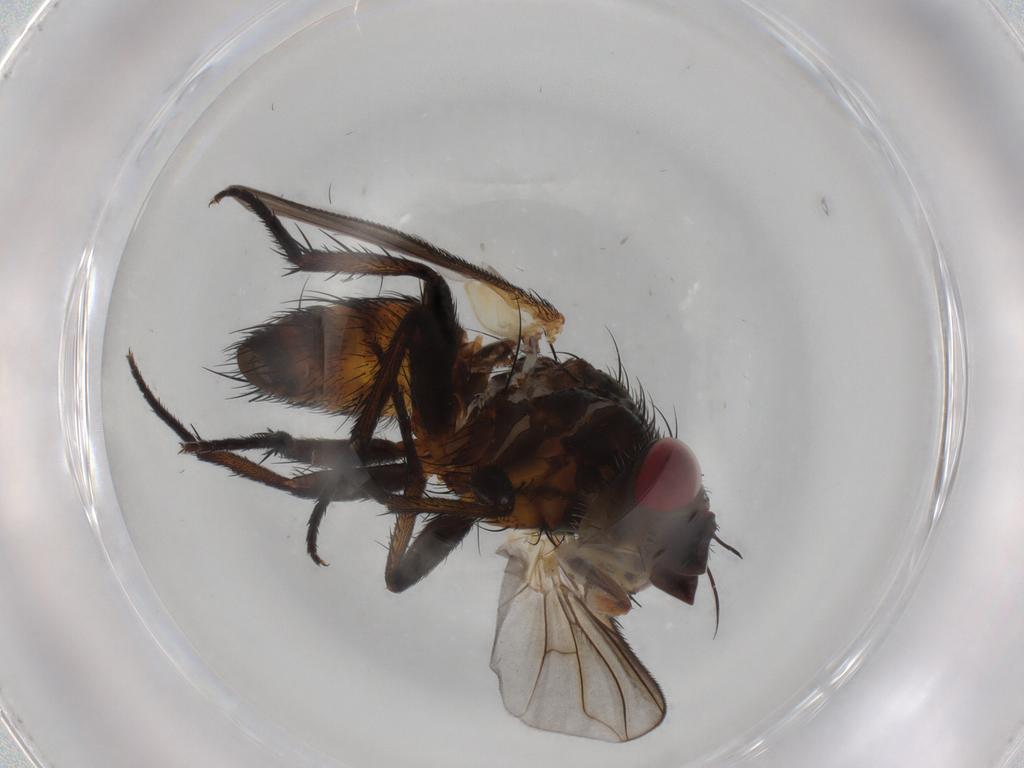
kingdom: Animalia
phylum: Arthropoda
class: Insecta
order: Diptera
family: Tachinidae
